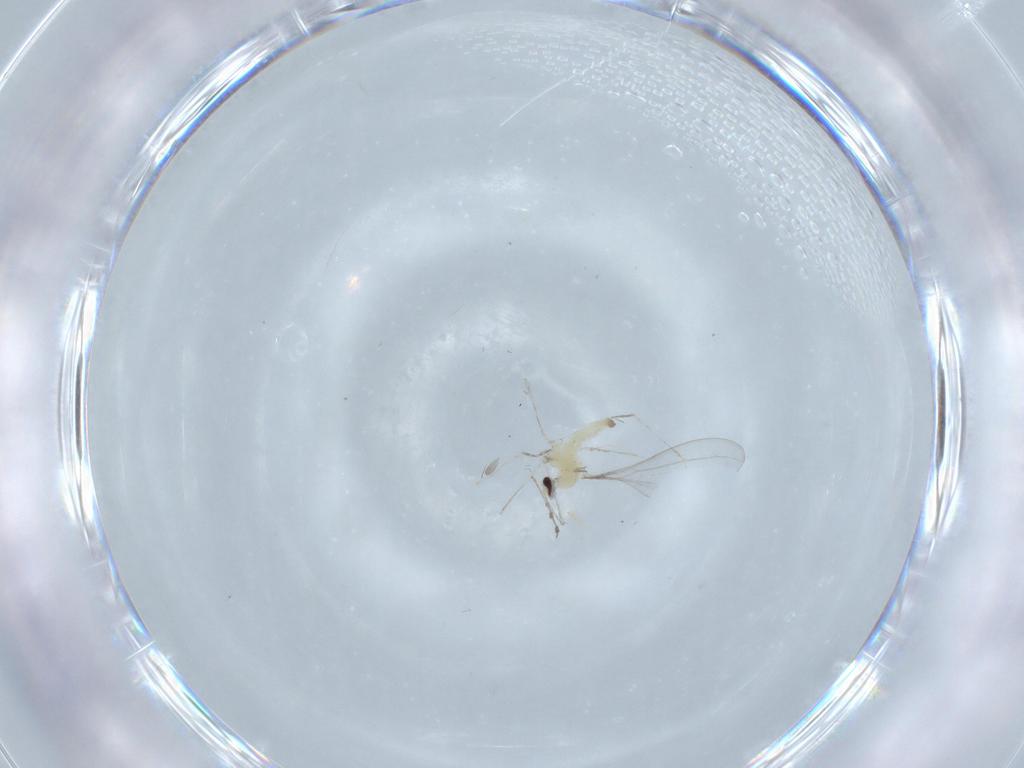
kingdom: Animalia
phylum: Arthropoda
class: Insecta
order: Diptera
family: Cecidomyiidae
